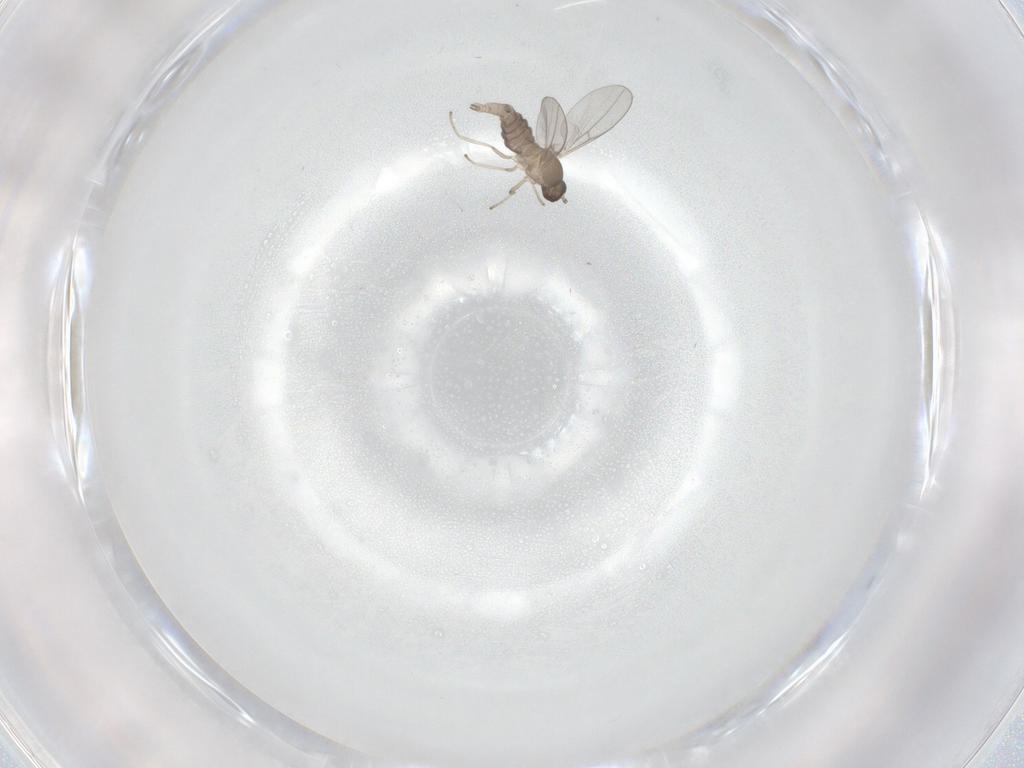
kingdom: Animalia
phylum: Arthropoda
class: Insecta
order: Diptera
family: Cecidomyiidae
